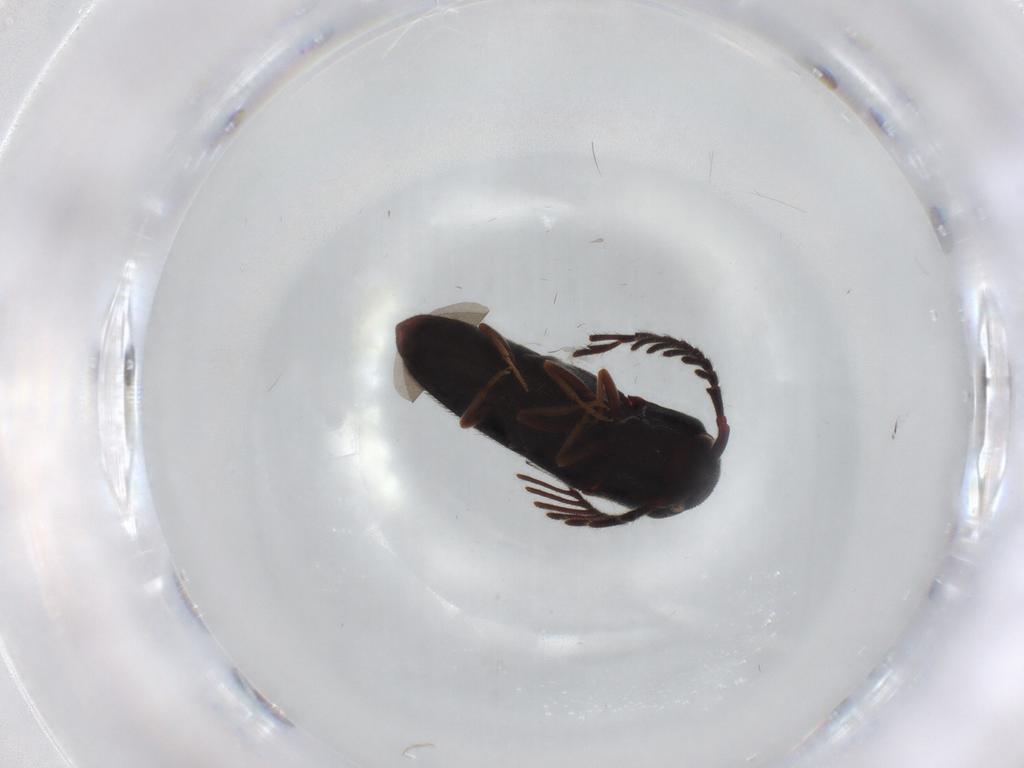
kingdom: Animalia
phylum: Arthropoda
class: Insecta
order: Coleoptera
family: Eucnemidae
